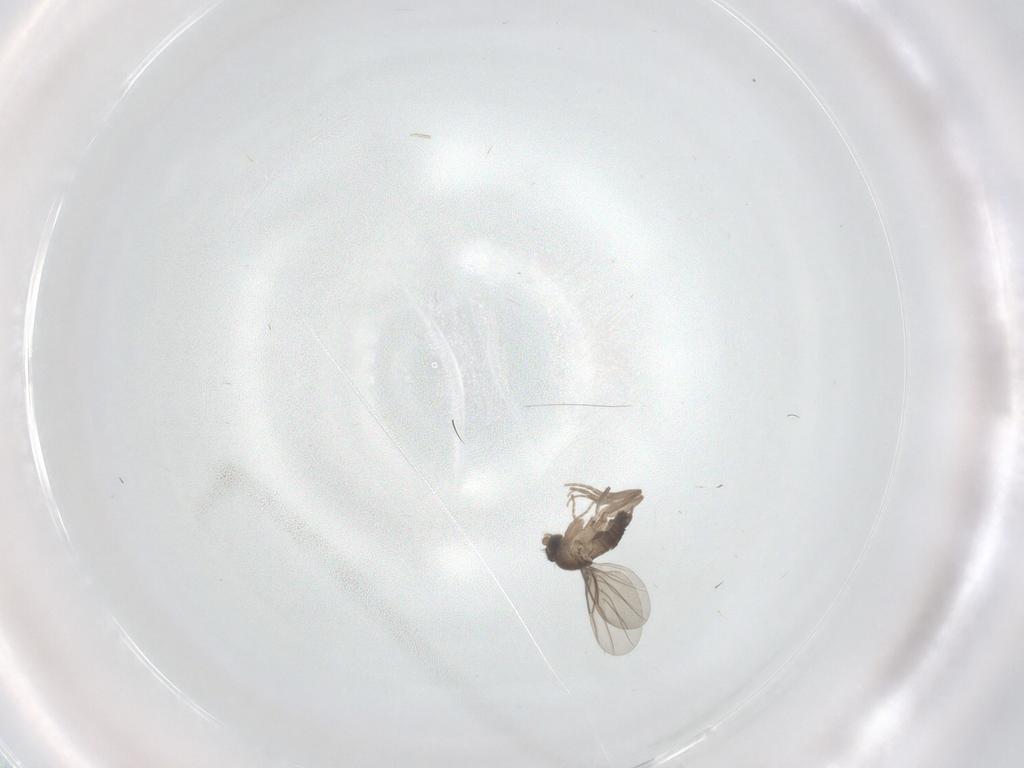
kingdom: Animalia
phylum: Arthropoda
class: Insecta
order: Diptera
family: Phoridae
